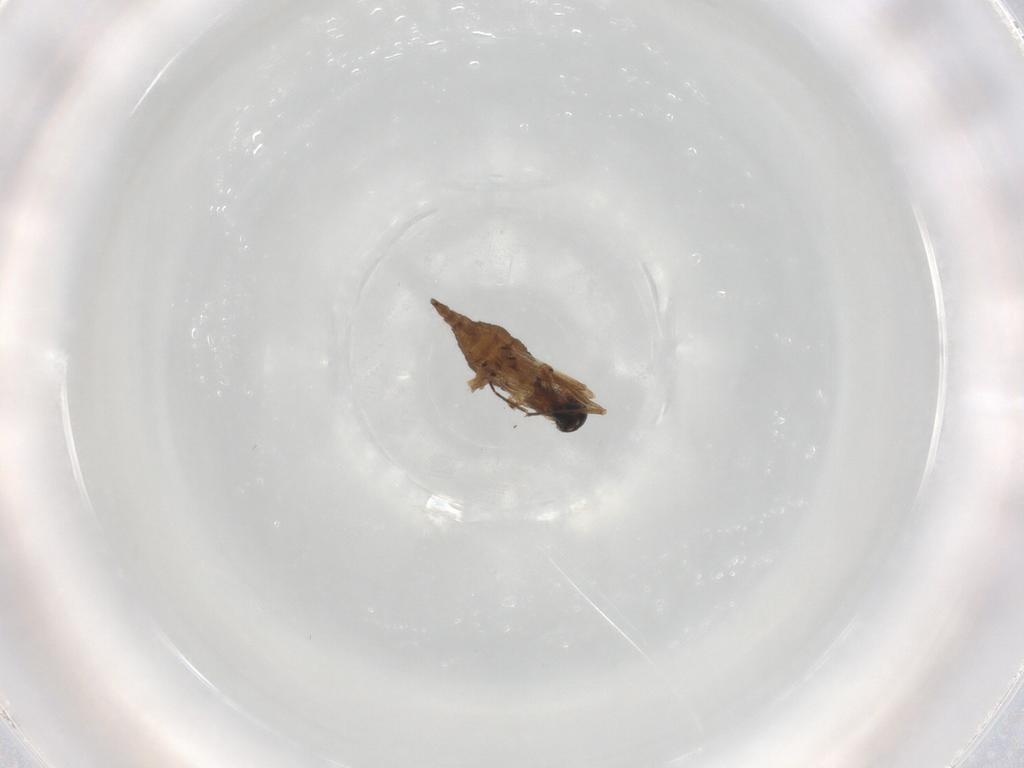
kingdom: Animalia
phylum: Arthropoda
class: Insecta
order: Diptera
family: Sciaridae
